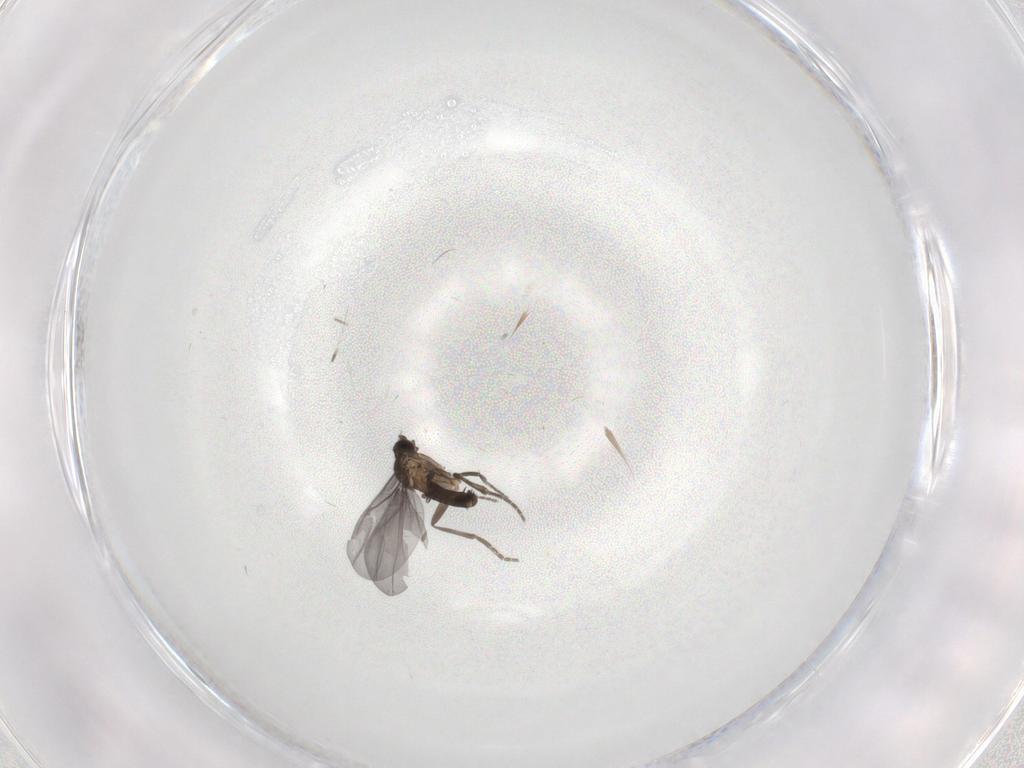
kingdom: Animalia
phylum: Arthropoda
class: Insecta
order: Diptera
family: Phoridae
